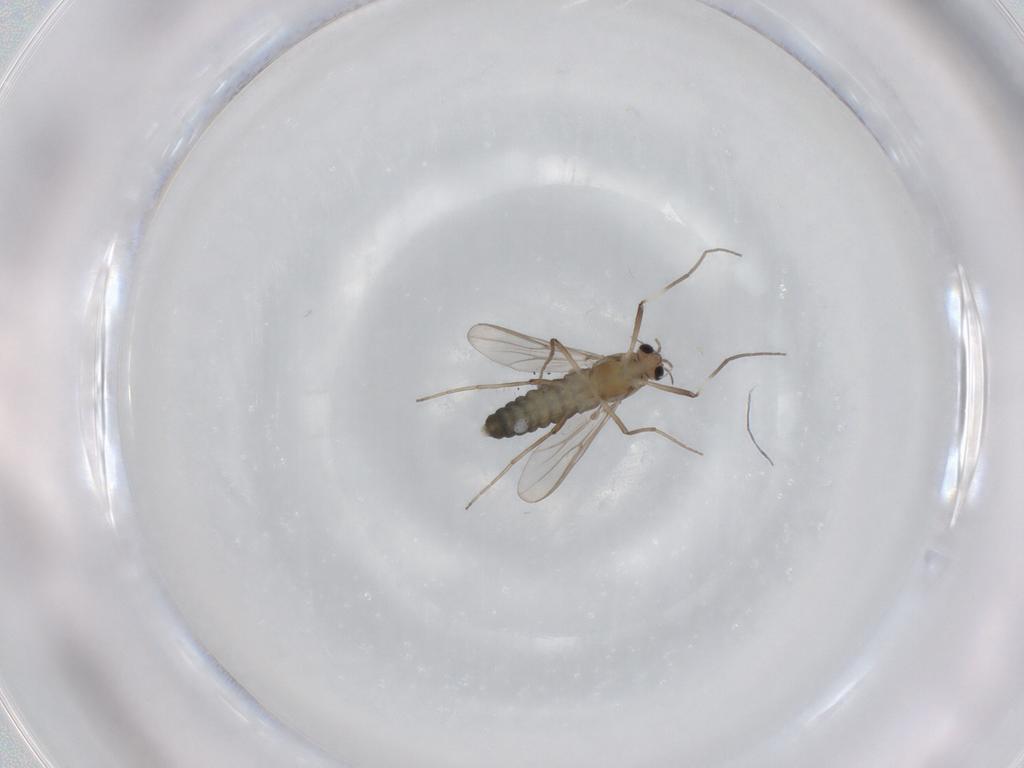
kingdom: Animalia
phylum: Arthropoda
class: Insecta
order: Diptera
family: Chironomidae
